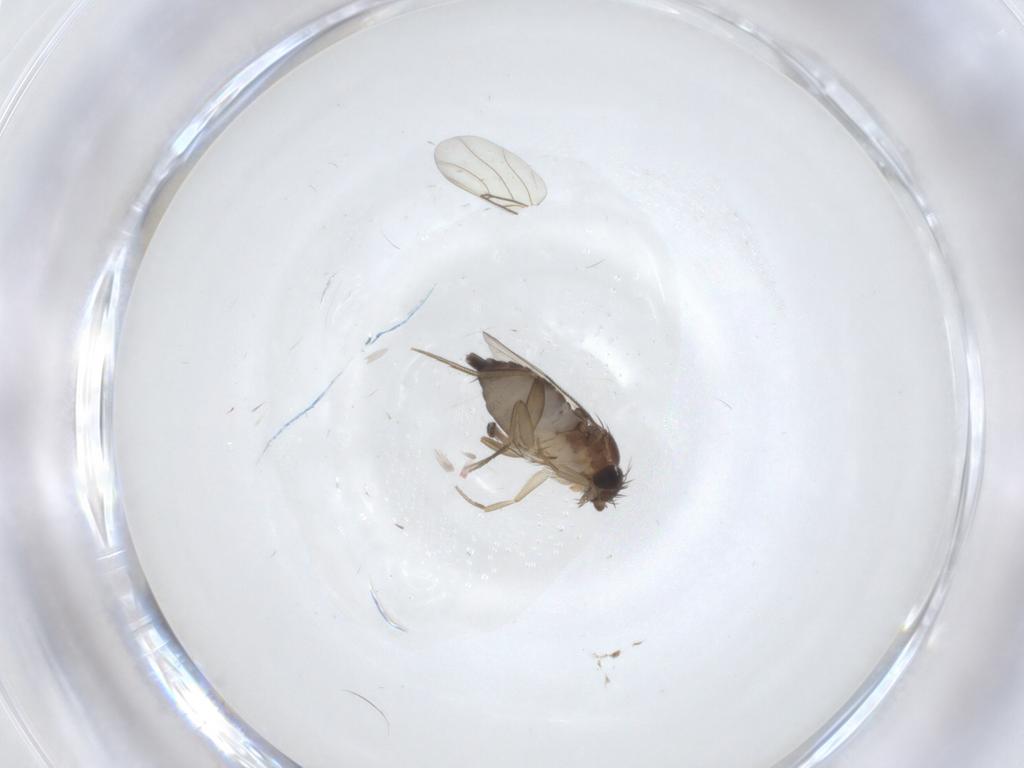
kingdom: Animalia
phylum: Arthropoda
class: Insecta
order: Diptera
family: Phoridae
